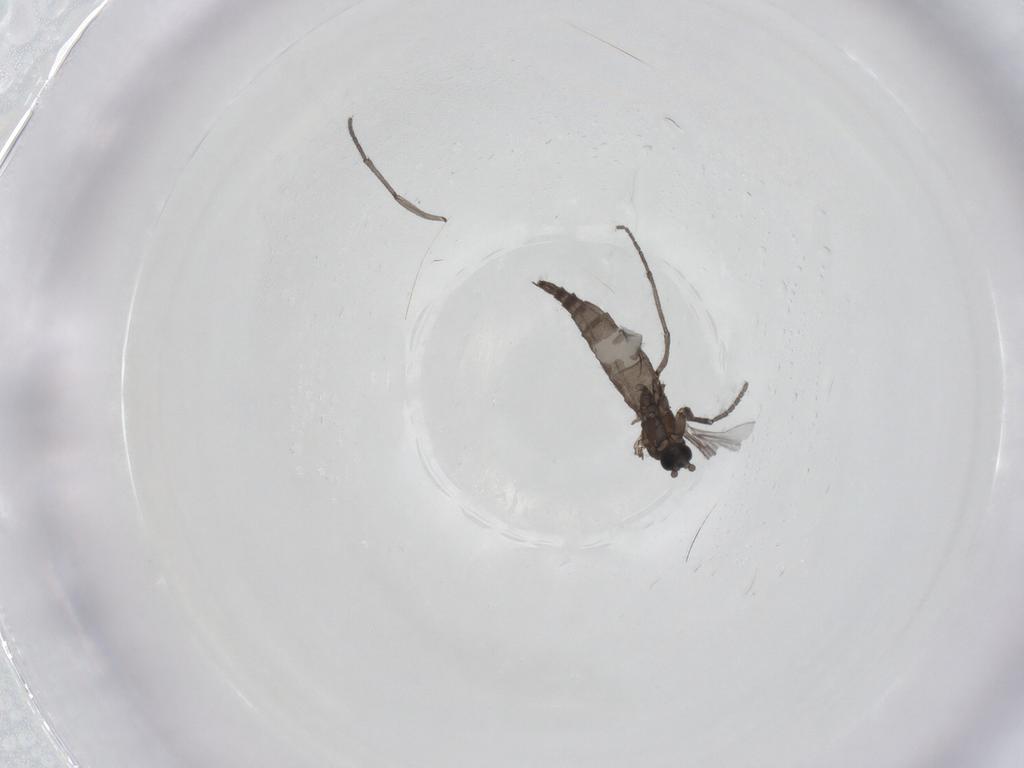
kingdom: Animalia
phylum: Arthropoda
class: Insecta
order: Diptera
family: Sciaridae
